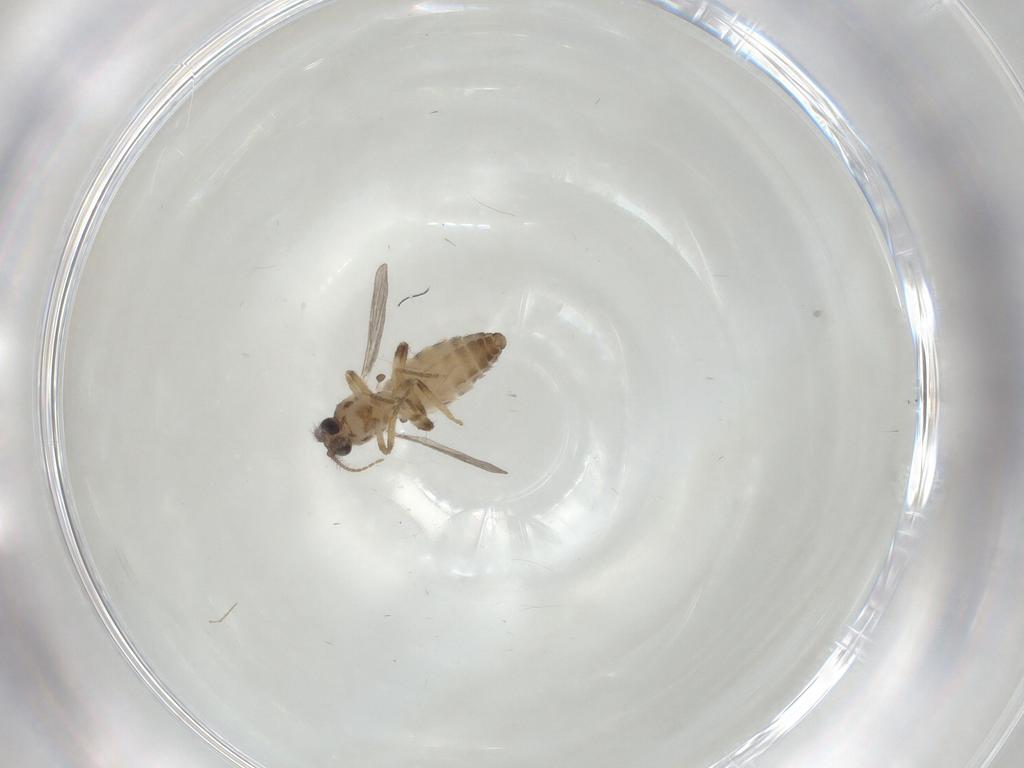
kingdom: Animalia
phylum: Arthropoda
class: Insecta
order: Diptera
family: Ceratopogonidae
